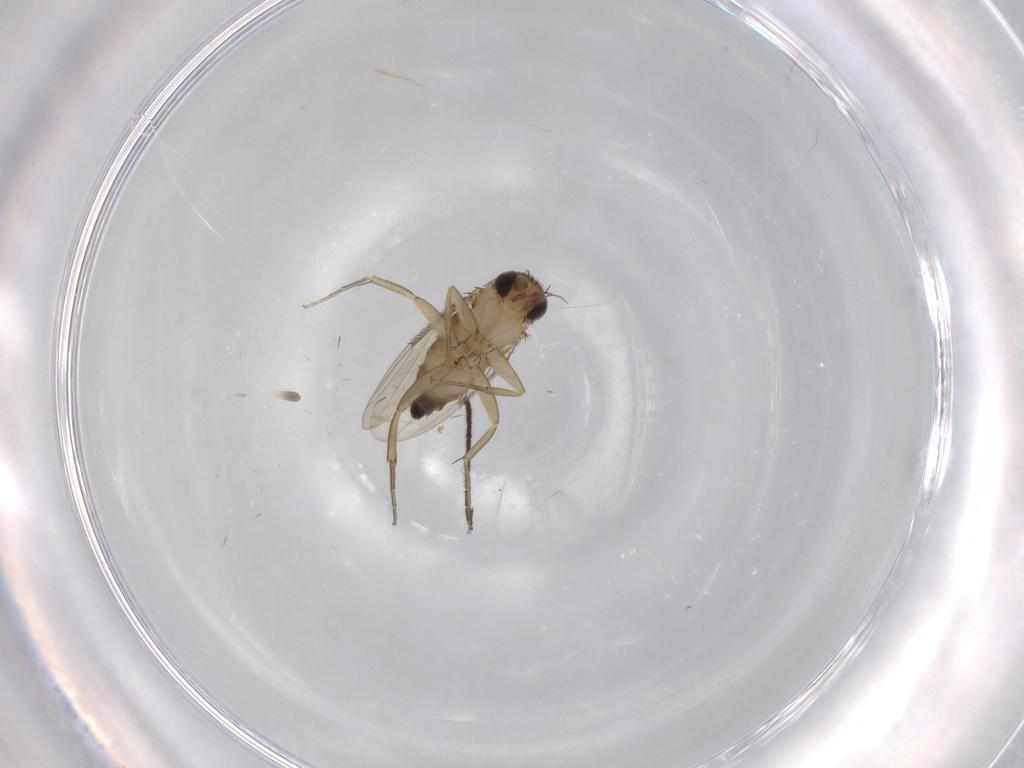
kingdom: Animalia
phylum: Arthropoda
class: Insecta
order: Diptera
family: Phoridae
